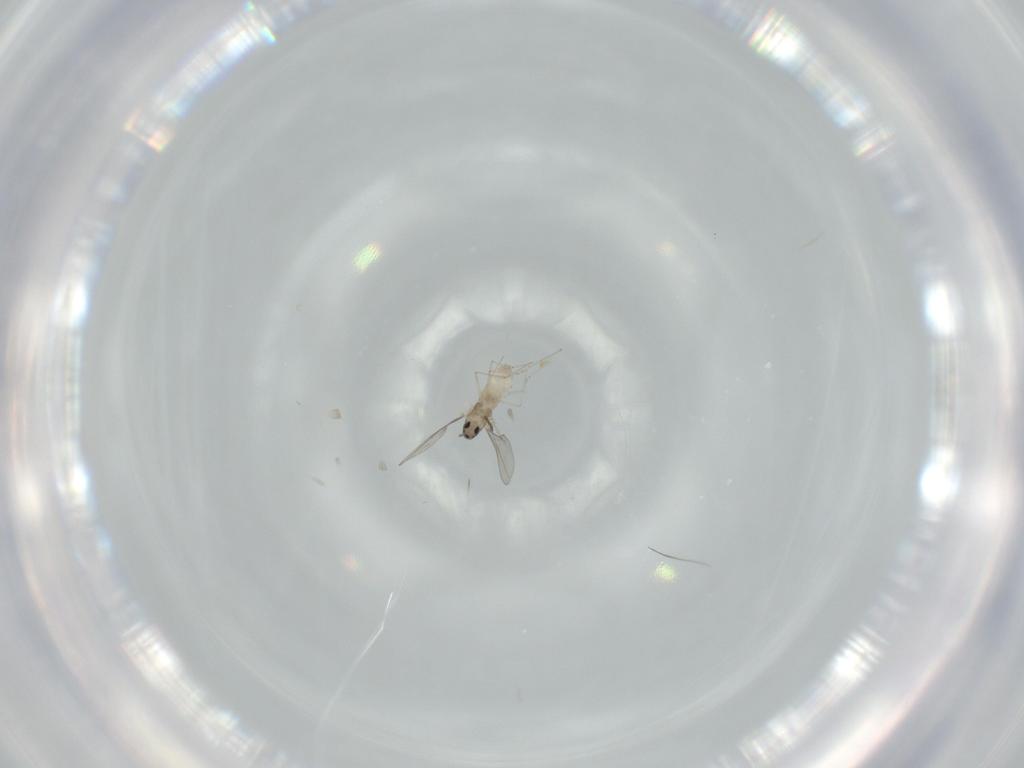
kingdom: Animalia
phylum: Arthropoda
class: Insecta
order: Diptera
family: Cecidomyiidae
